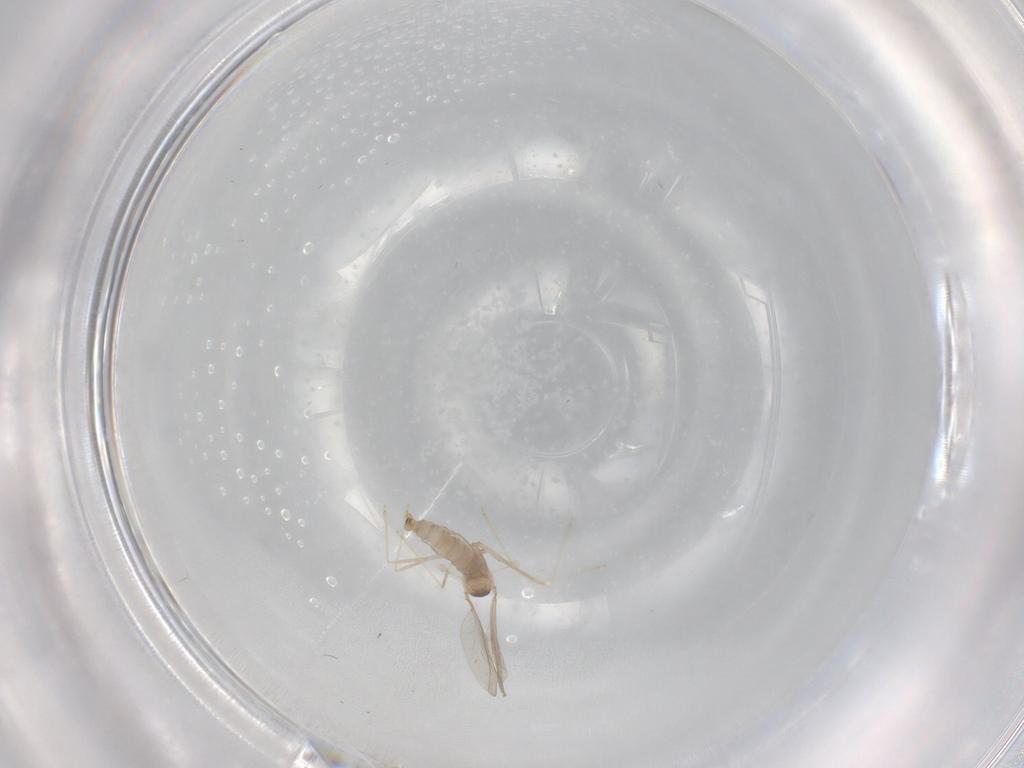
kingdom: Animalia
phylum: Arthropoda
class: Insecta
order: Diptera
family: Cecidomyiidae
